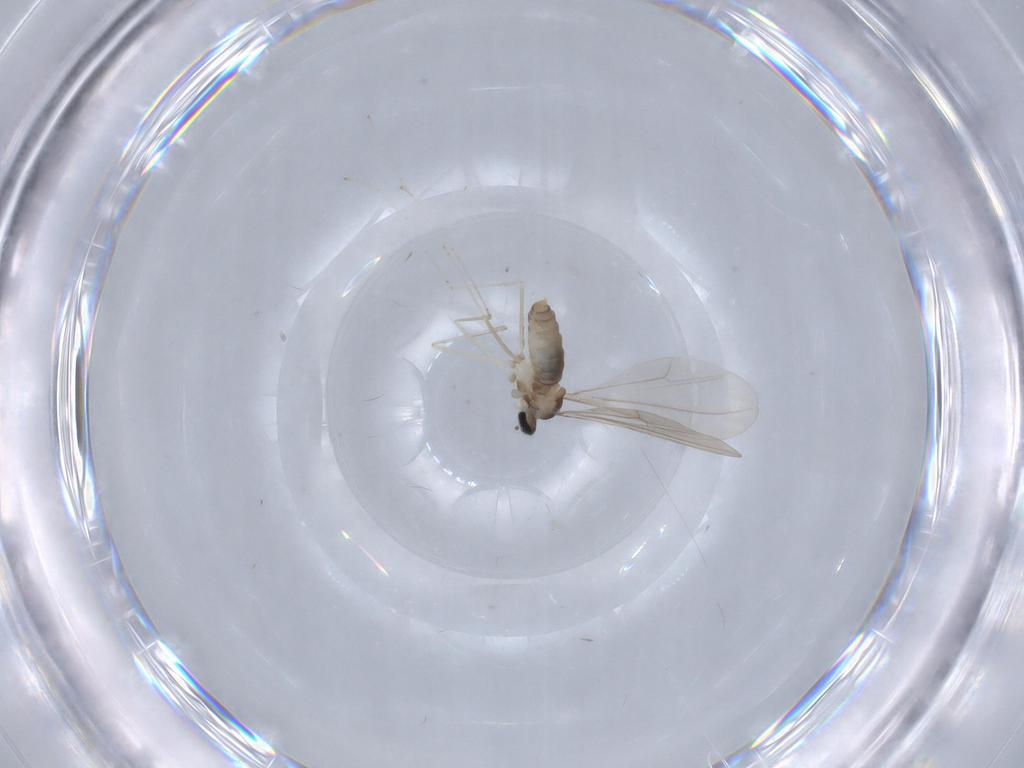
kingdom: Animalia
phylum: Arthropoda
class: Insecta
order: Diptera
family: Cecidomyiidae
